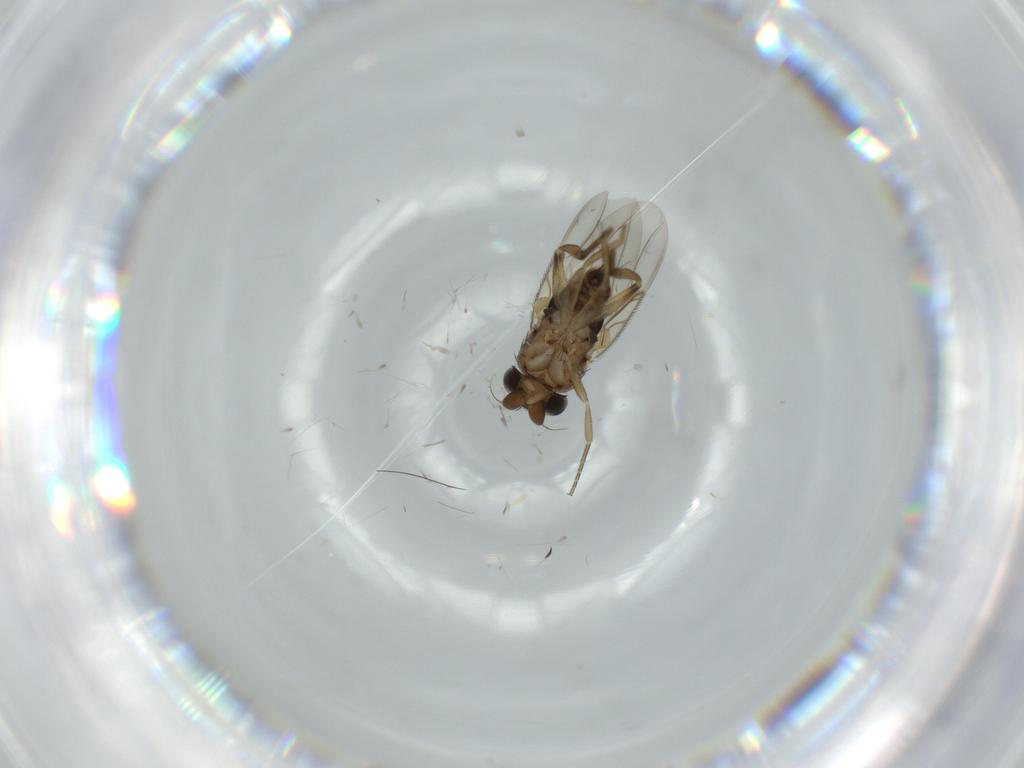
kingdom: Animalia
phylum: Arthropoda
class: Insecta
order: Diptera
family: Phoridae
